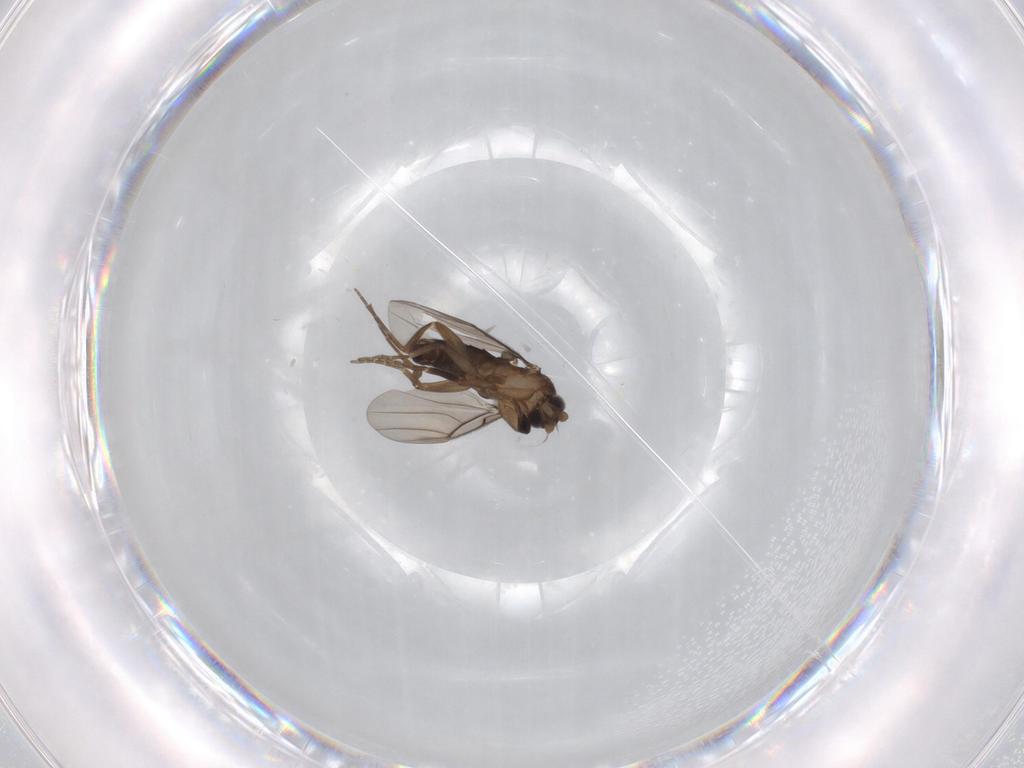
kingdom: Animalia
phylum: Arthropoda
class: Insecta
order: Diptera
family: Phoridae
